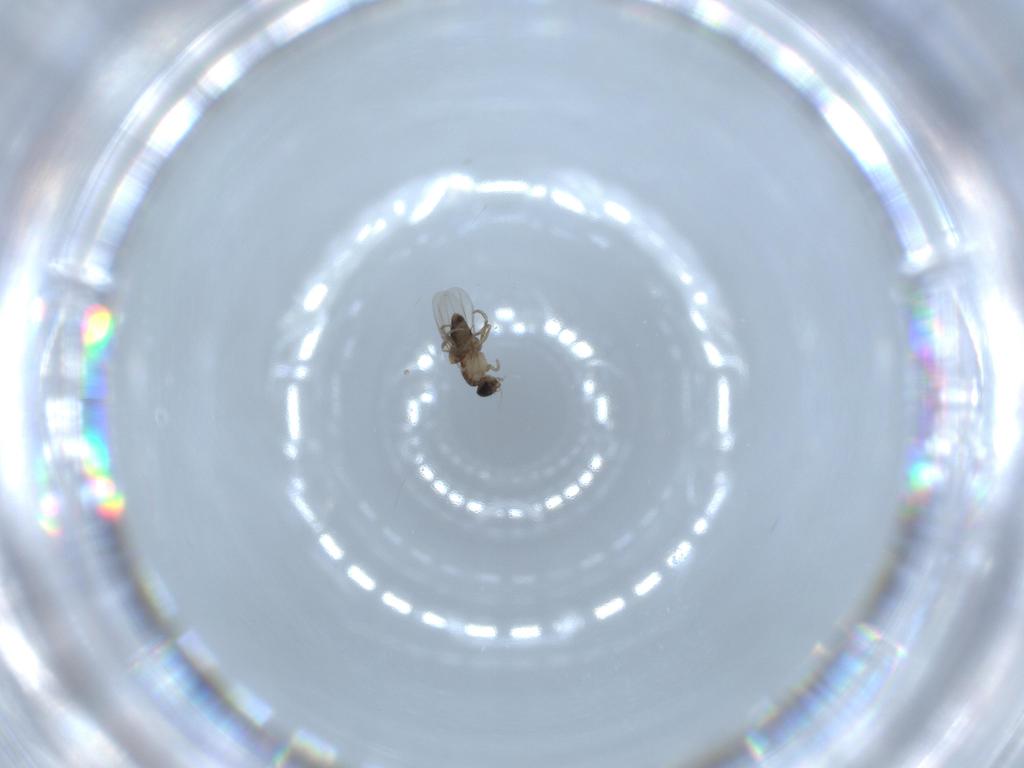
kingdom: Animalia
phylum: Arthropoda
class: Insecta
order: Diptera
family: Phoridae
